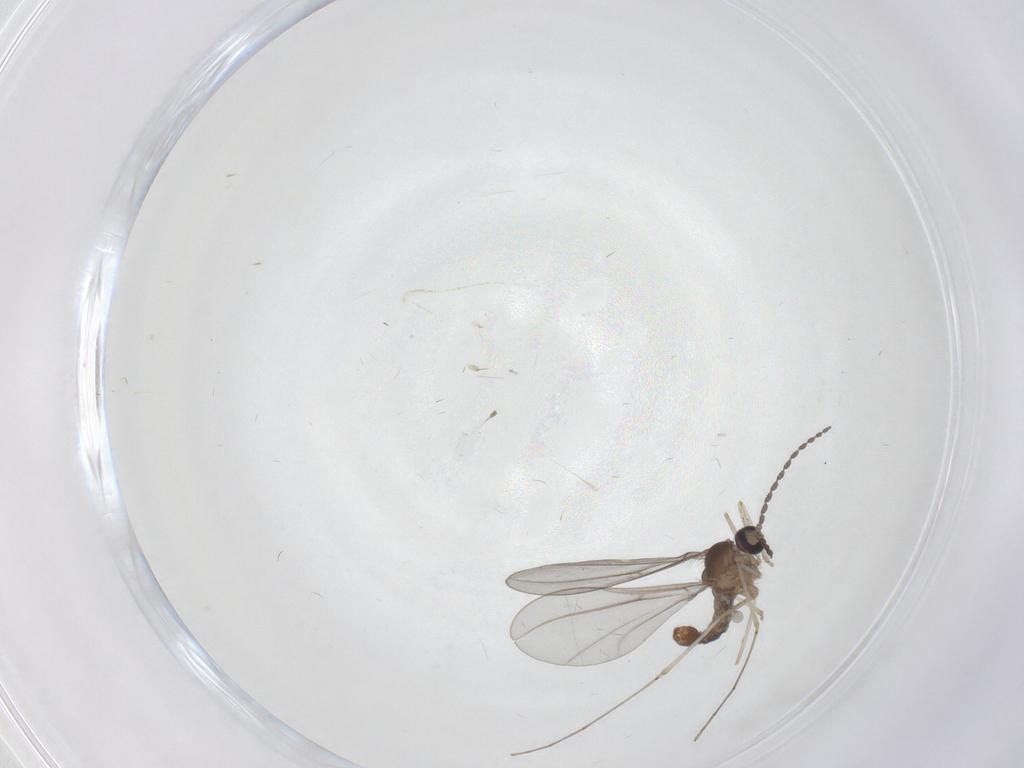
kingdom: Animalia
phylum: Arthropoda
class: Insecta
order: Diptera
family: Cecidomyiidae
